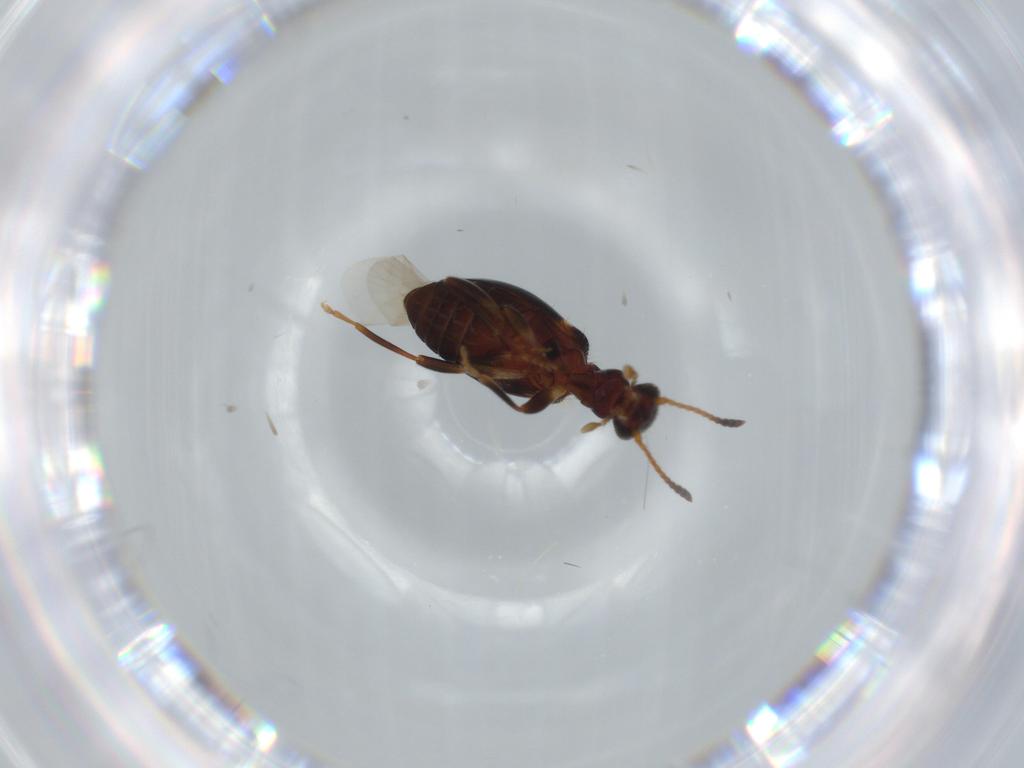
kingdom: Animalia
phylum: Arthropoda
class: Insecta
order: Coleoptera
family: Anthicidae
